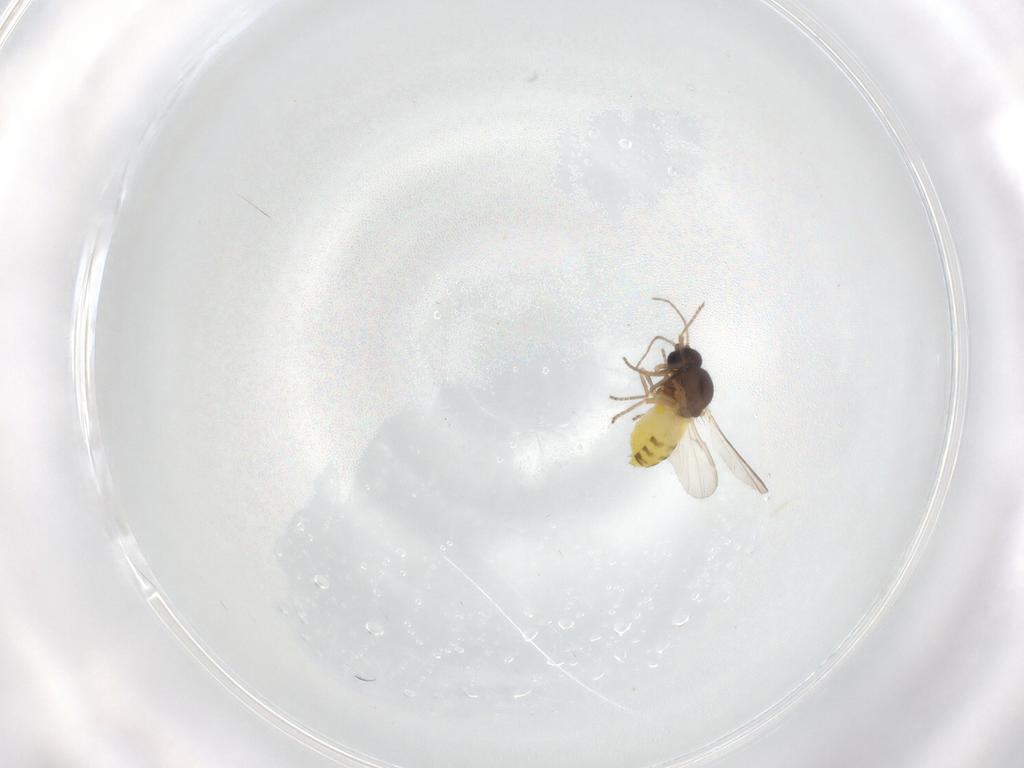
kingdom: Animalia
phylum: Arthropoda
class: Insecta
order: Diptera
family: Ceratopogonidae
